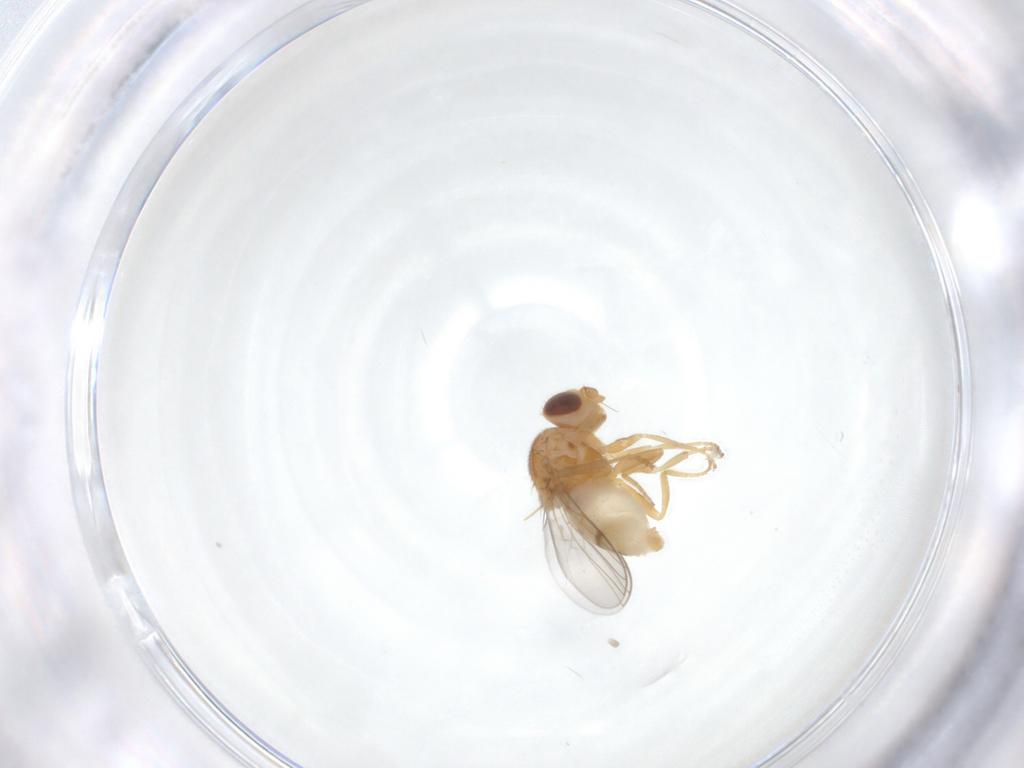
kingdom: Animalia
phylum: Arthropoda
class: Insecta
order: Diptera
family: Chloropidae
